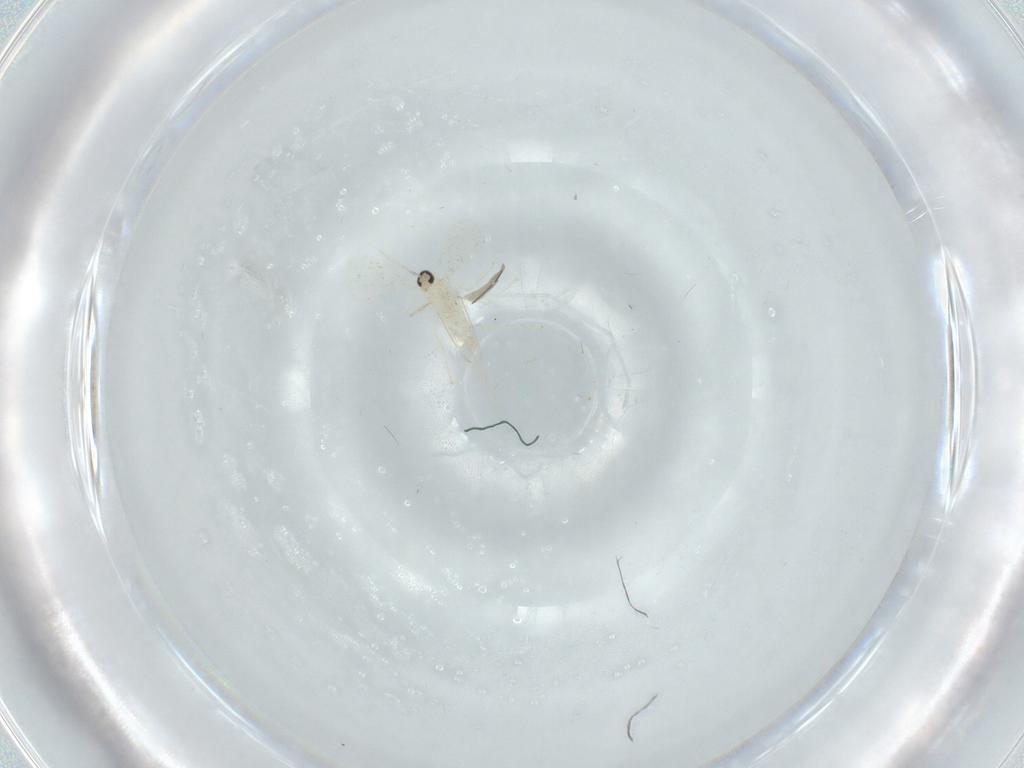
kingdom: Animalia
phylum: Arthropoda
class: Insecta
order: Diptera
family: Cecidomyiidae
